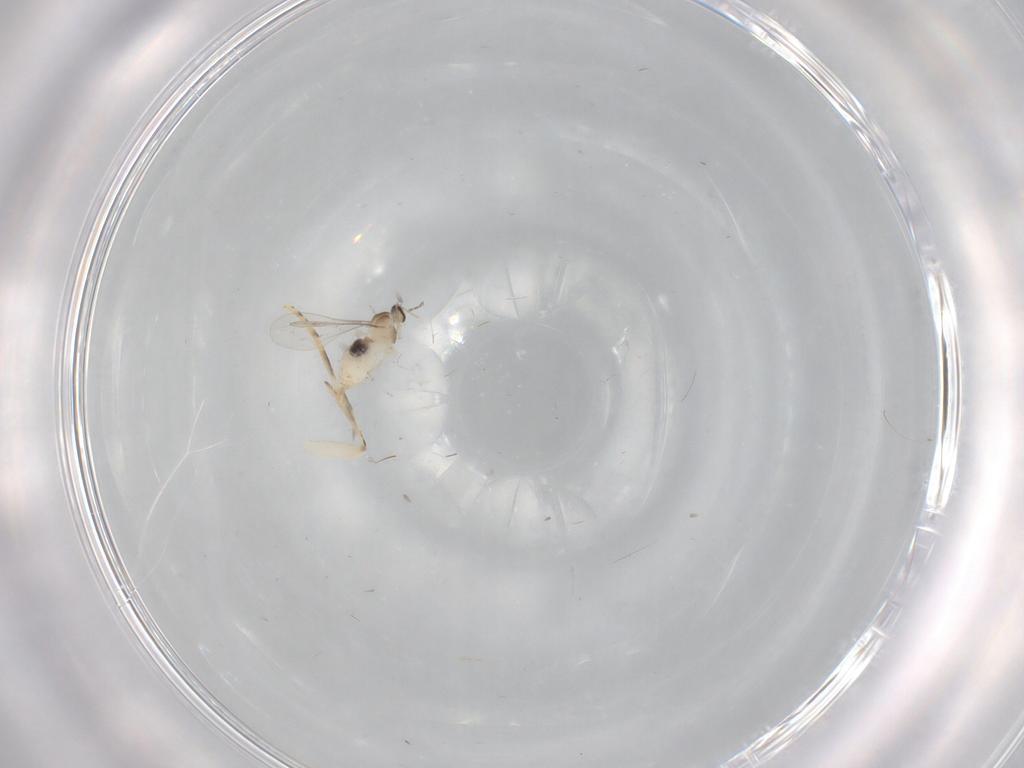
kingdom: Animalia
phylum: Arthropoda
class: Insecta
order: Diptera
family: Cecidomyiidae
